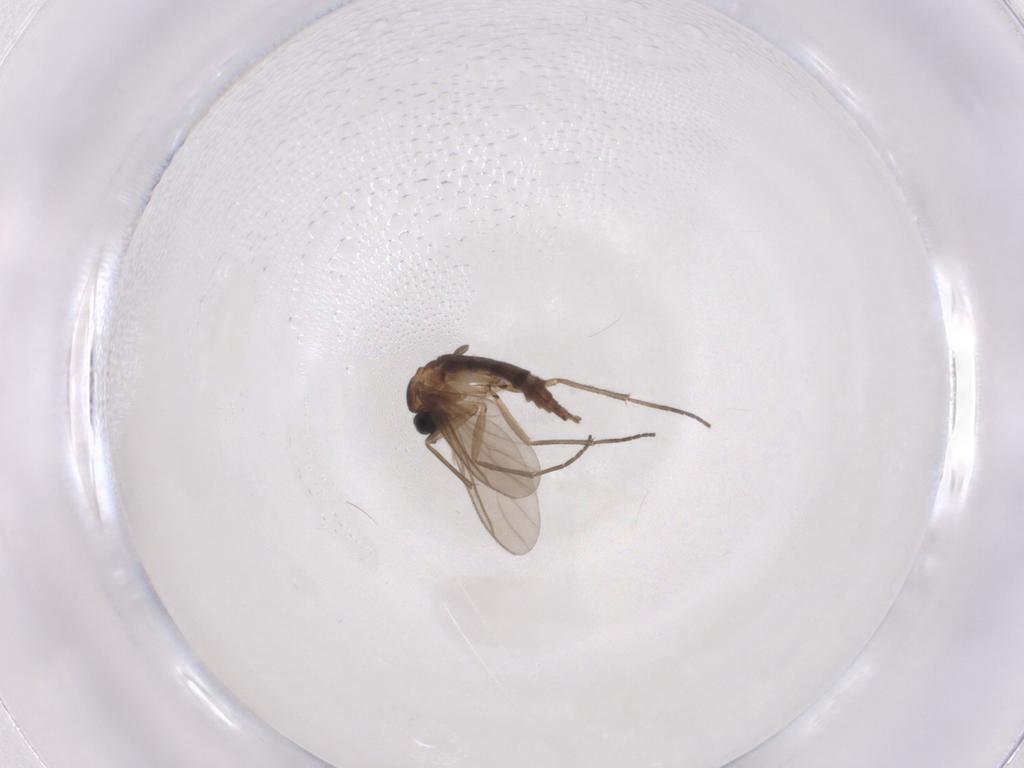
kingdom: Animalia
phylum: Arthropoda
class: Insecta
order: Diptera
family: Sciaridae
